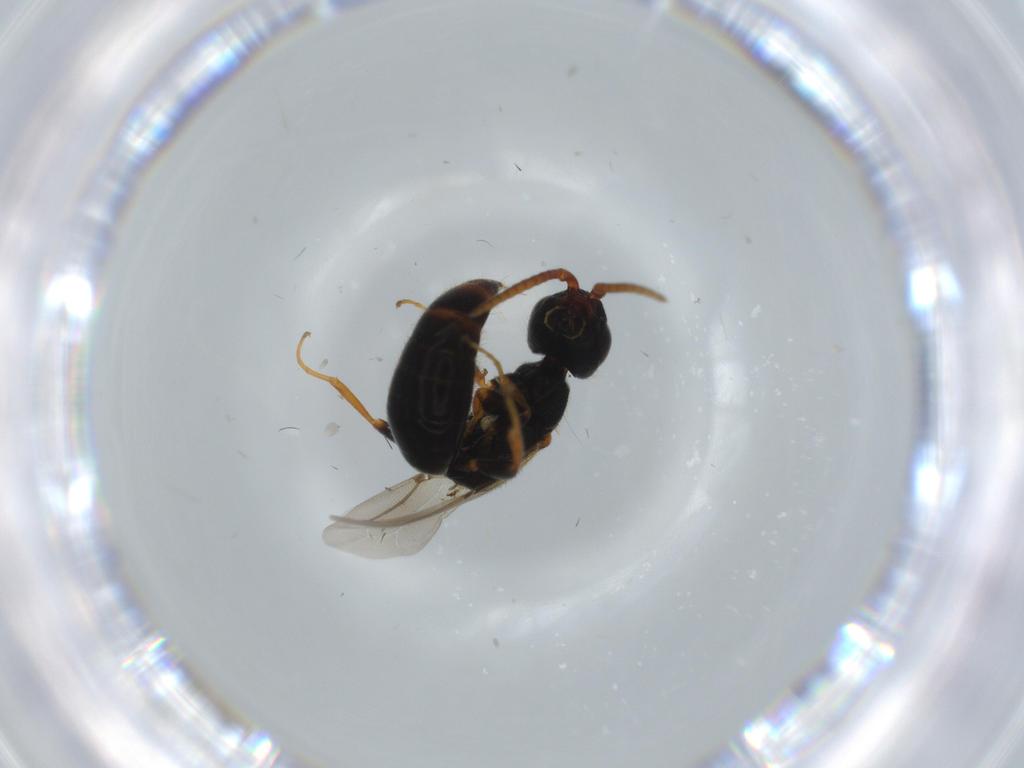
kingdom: Animalia
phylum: Arthropoda
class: Insecta
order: Hymenoptera
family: Bethylidae
